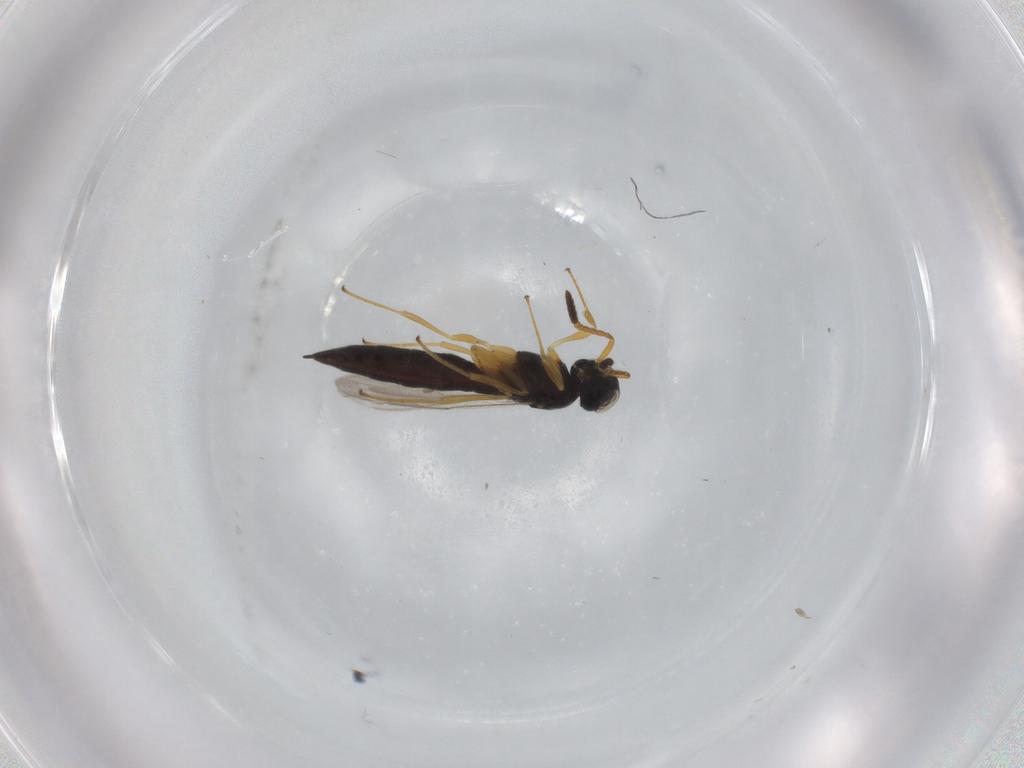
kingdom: Animalia
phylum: Arthropoda
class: Insecta
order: Hymenoptera
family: Scelionidae
